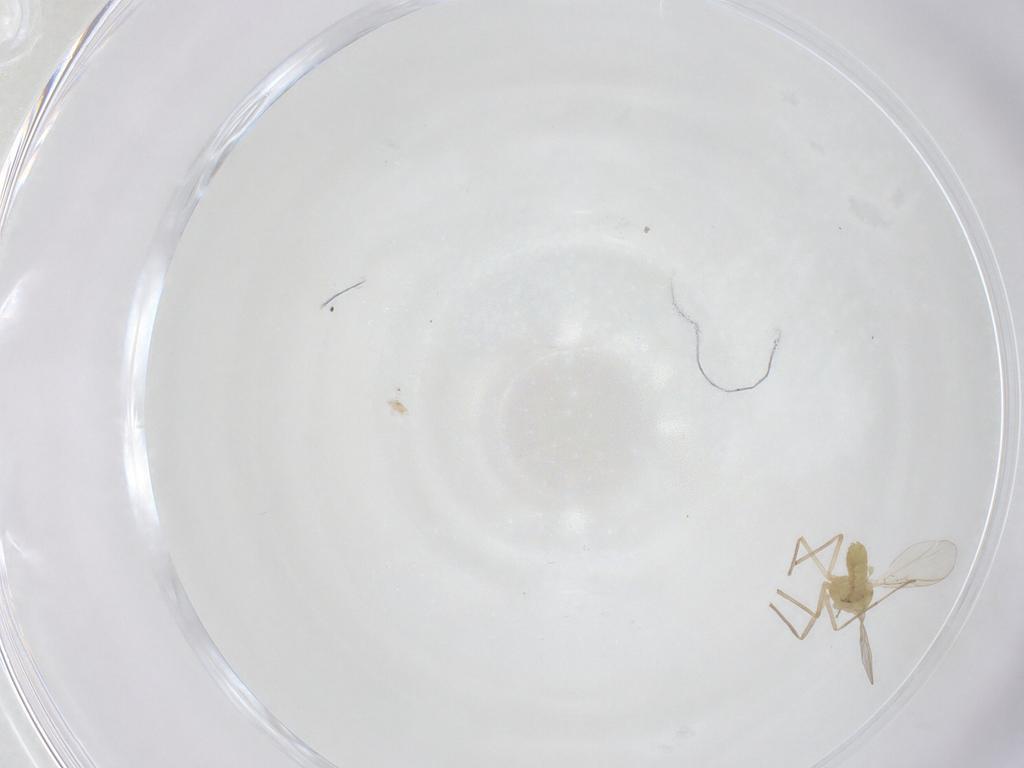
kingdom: Animalia
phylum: Arthropoda
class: Insecta
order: Diptera
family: Chironomidae
